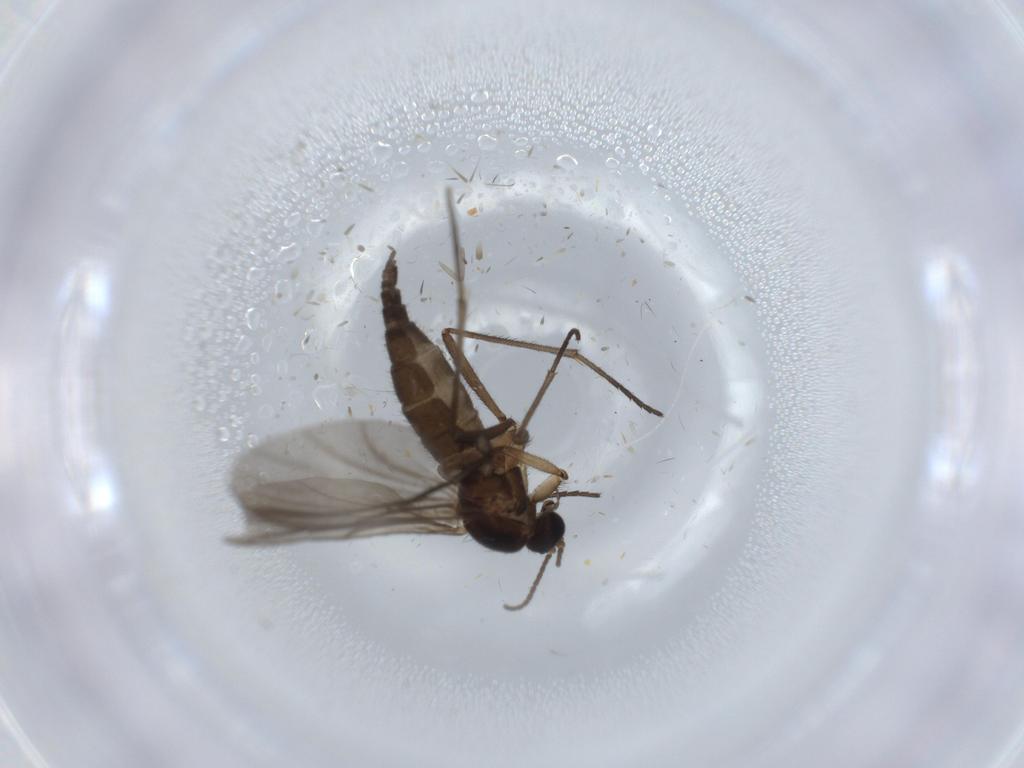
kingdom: Animalia
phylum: Arthropoda
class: Insecta
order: Diptera
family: Sciaridae
